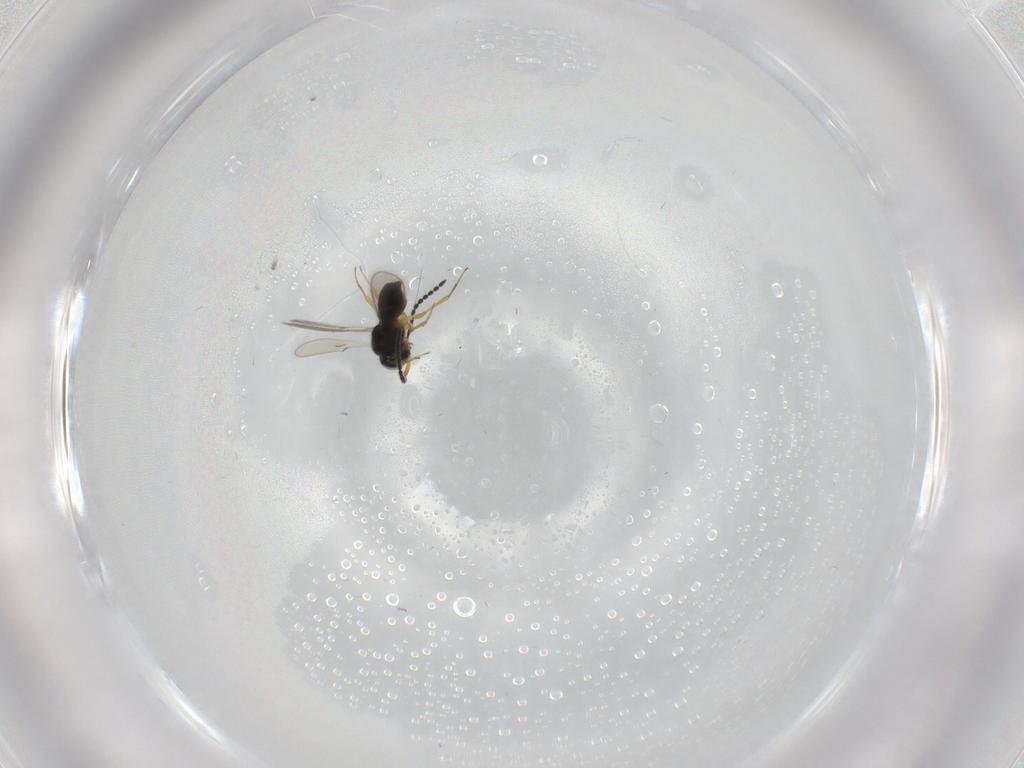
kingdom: Animalia
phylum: Arthropoda
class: Insecta
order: Hymenoptera
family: Scelionidae
